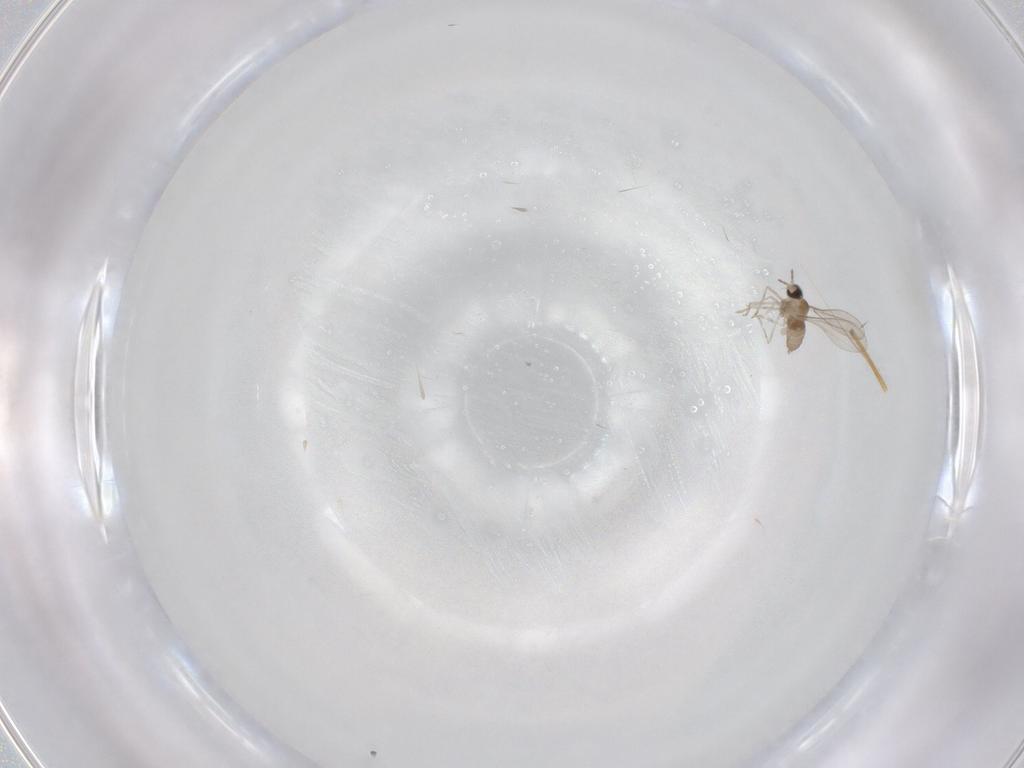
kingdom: Animalia
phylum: Arthropoda
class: Insecta
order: Diptera
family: Cecidomyiidae
